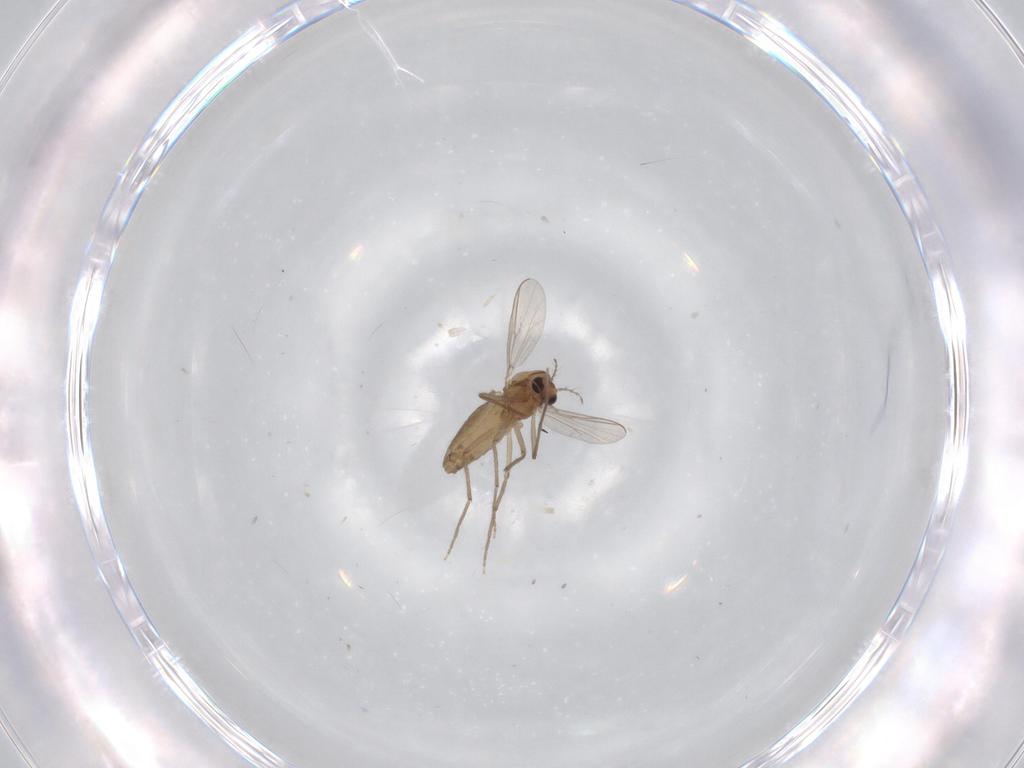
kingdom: Animalia
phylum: Arthropoda
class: Insecta
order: Diptera
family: Chironomidae
